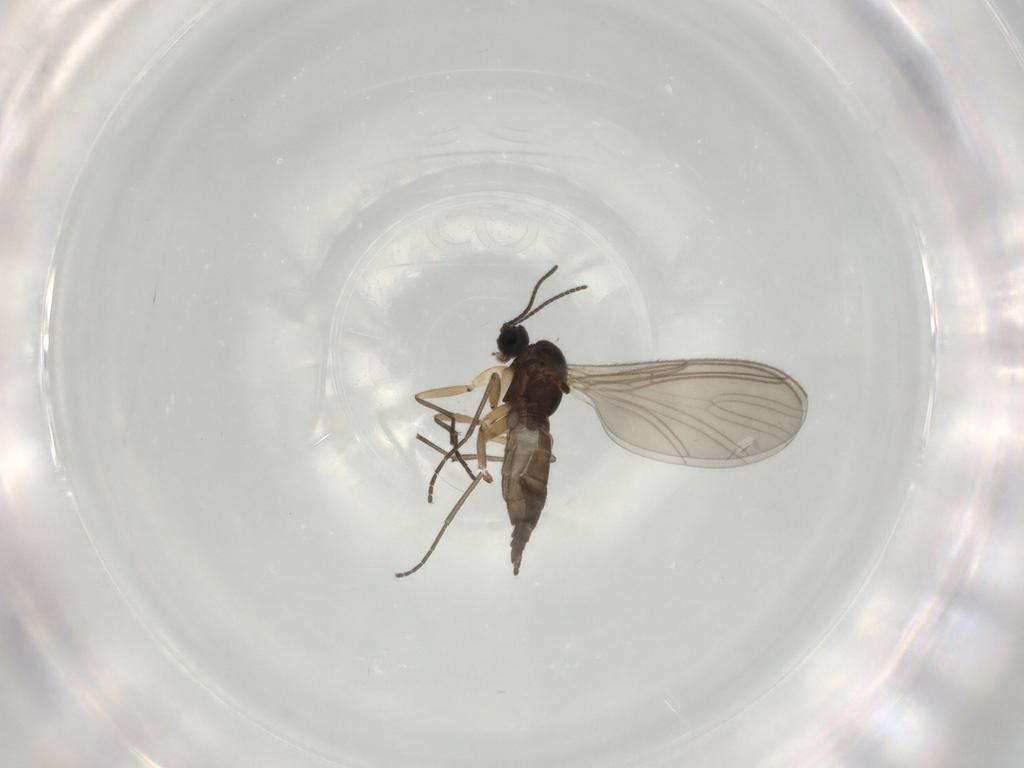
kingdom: Animalia
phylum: Arthropoda
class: Insecta
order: Diptera
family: Sciaridae
